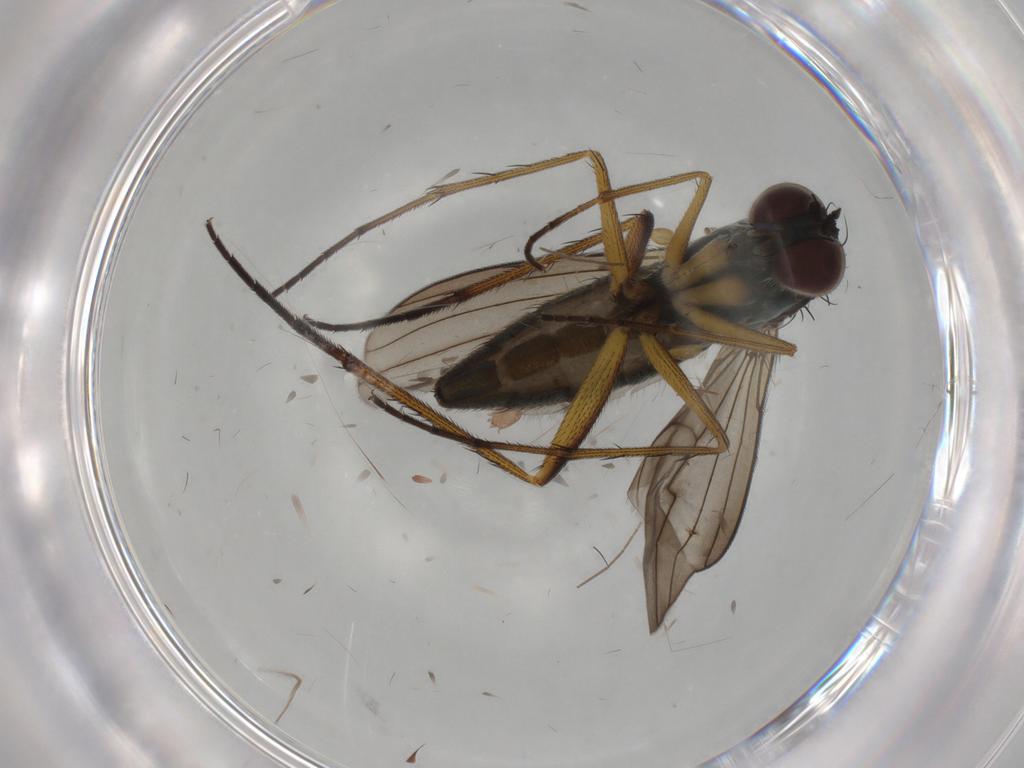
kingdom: Animalia
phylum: Arthropoda
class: Insecta
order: Diptera
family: Dolichopodidae
